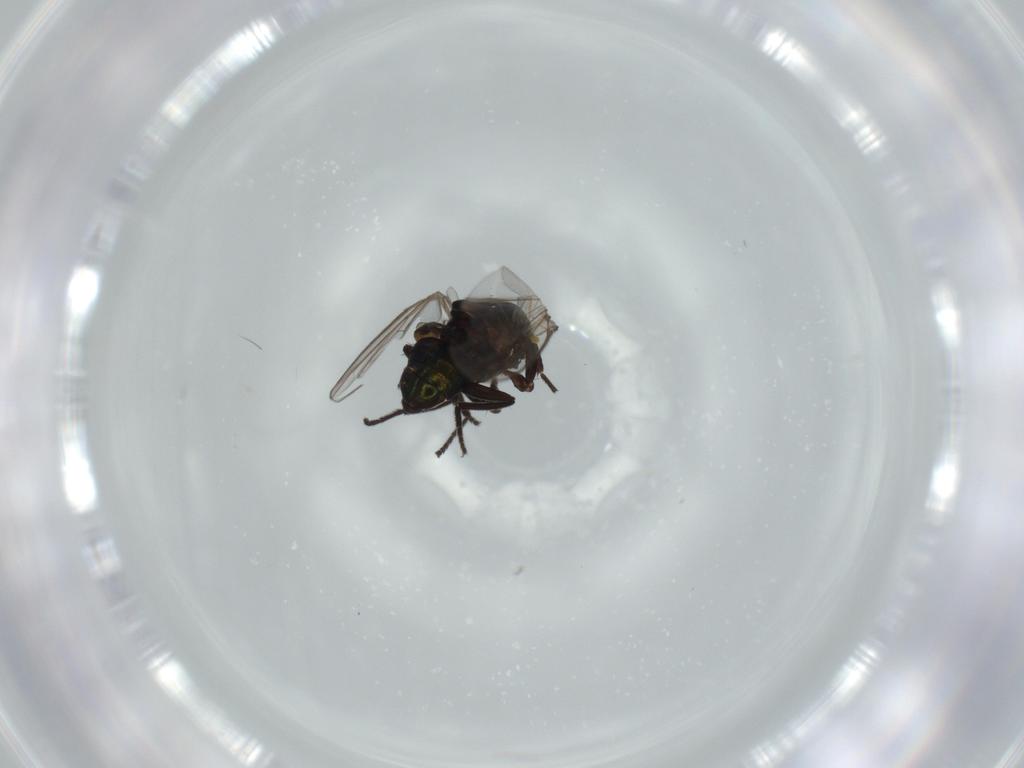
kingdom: Animalia
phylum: Arthropoda
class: Insecta
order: Diptera
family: Agromyzidae
